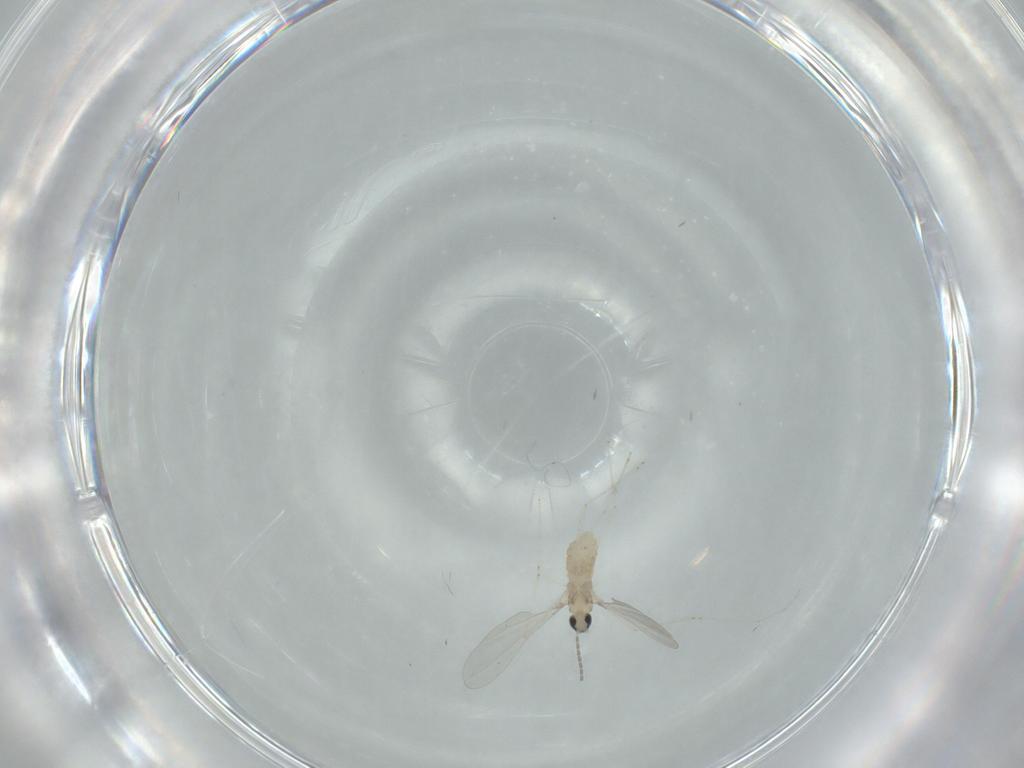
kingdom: Animalia
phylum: Arthropoda
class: Insecta
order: Diptera
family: Cecidomyiidae
